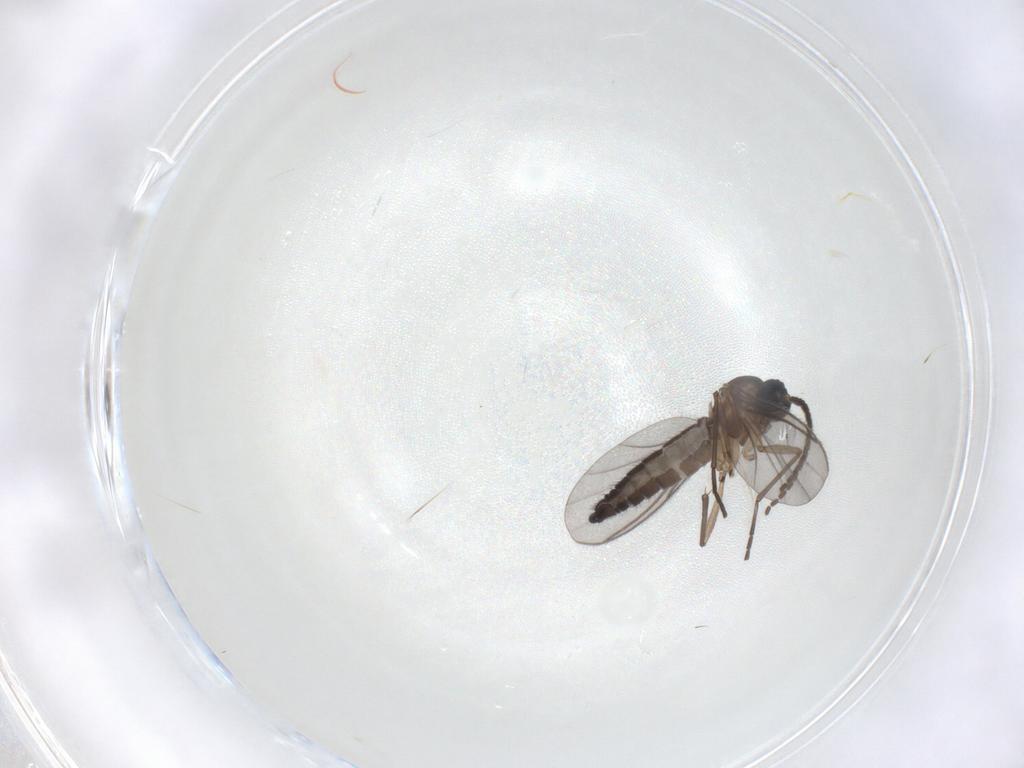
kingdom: Animalia
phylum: Arthropoda
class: Insecta
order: Diptera
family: Sciaridae
